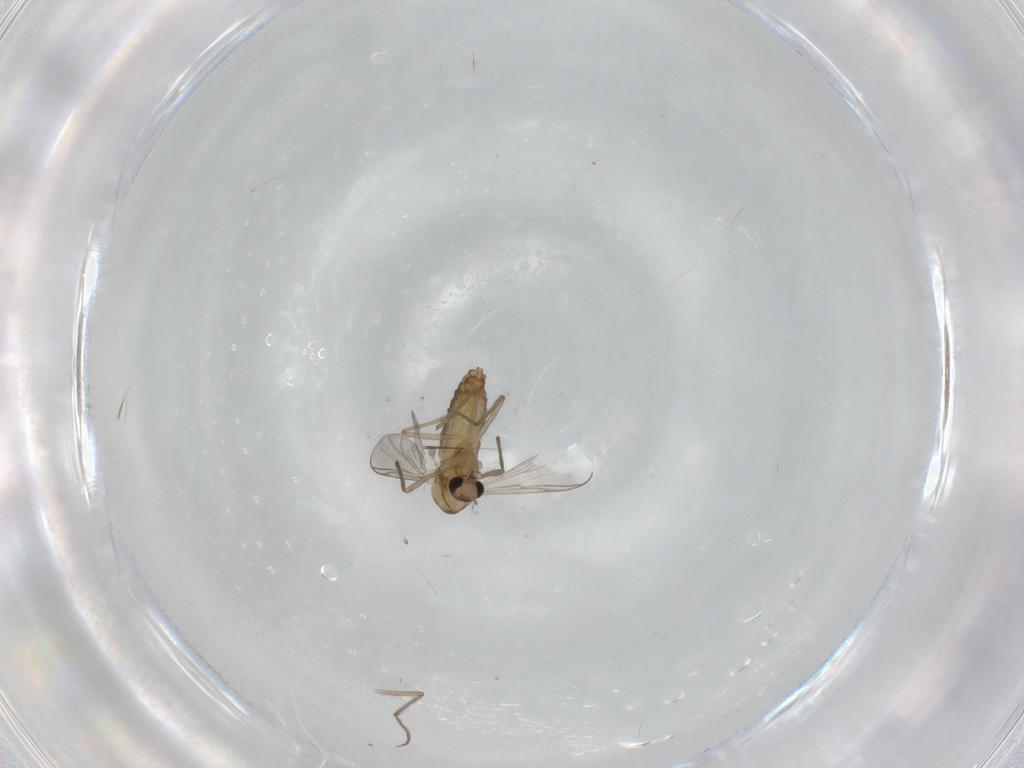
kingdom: Animalia
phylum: Arthropoda
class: Insecta
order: Diptera
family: Chironomidae
